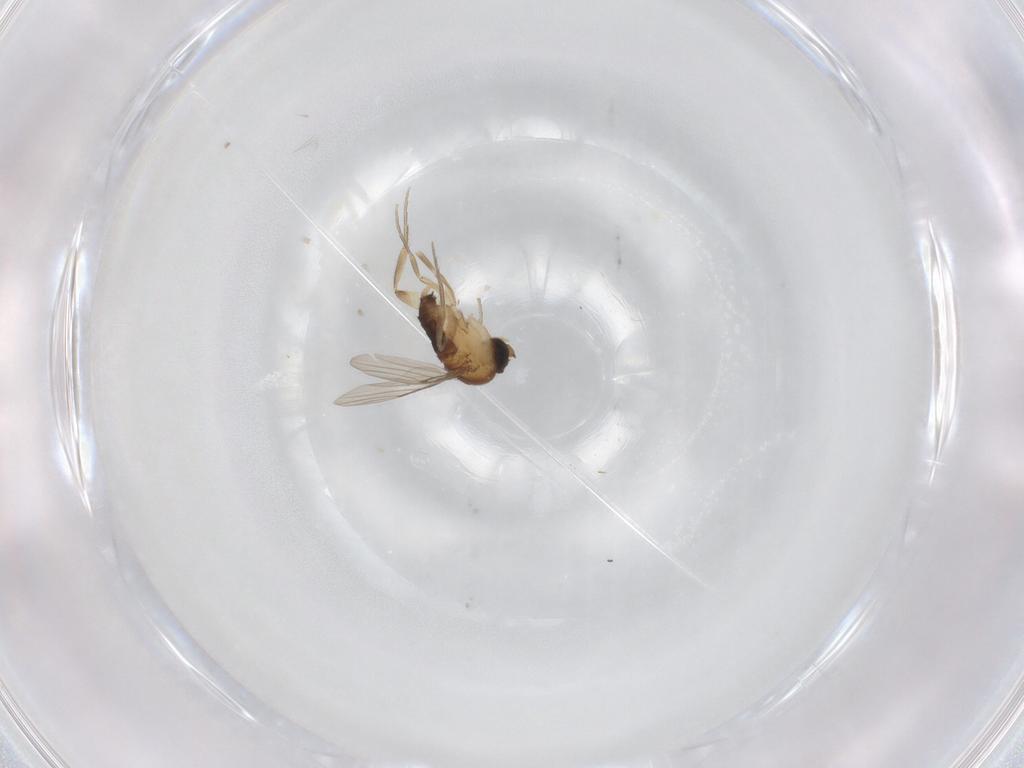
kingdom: Animalia
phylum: Arthropoda
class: Insecta
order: Diptera
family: Phoridae
